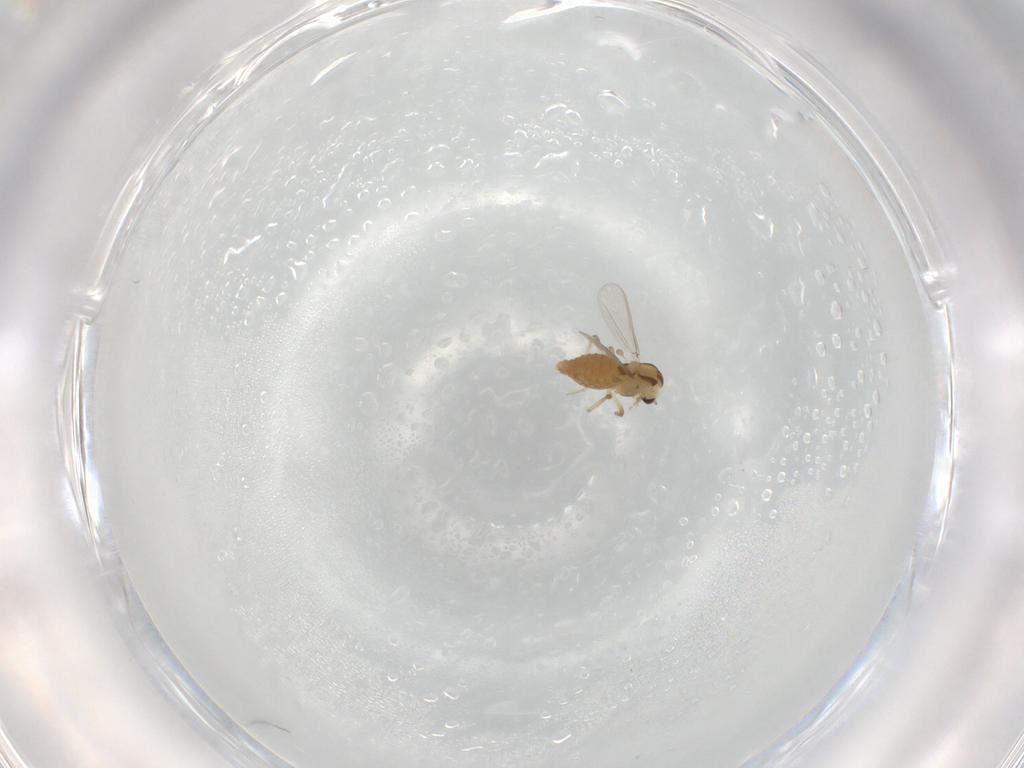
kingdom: Animalia
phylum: Arthropoda
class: Insecta
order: Diptera
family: Chironomidae
